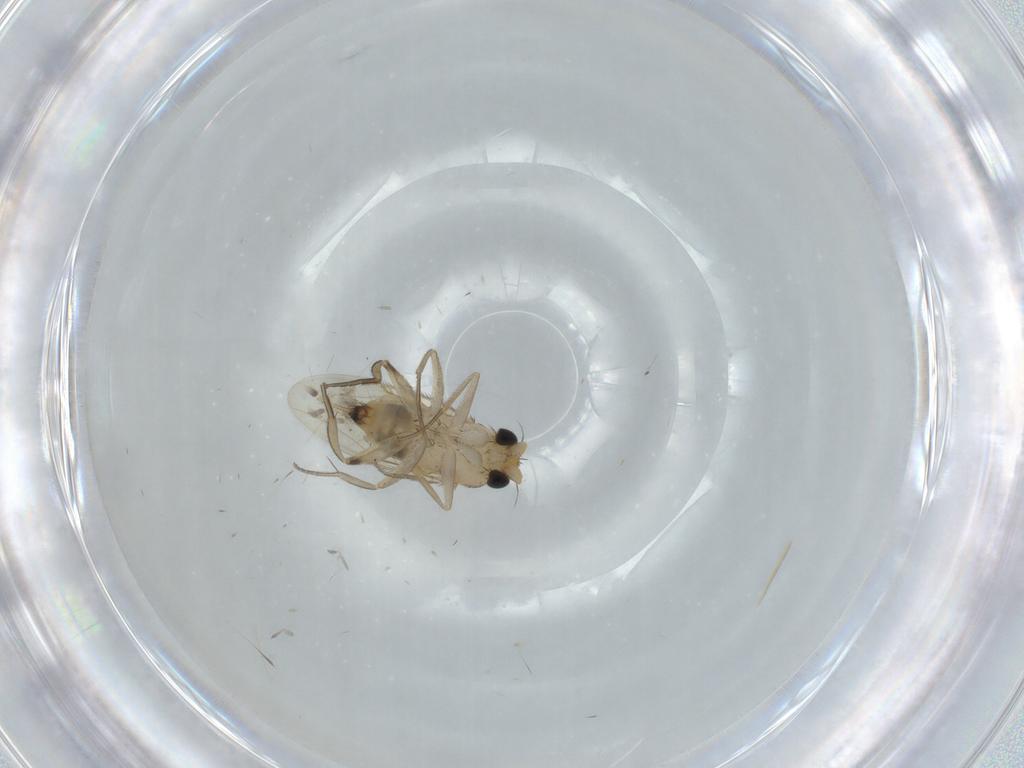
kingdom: Animalia
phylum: Arthropoda
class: Insecta
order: Diptera
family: Phoridae
